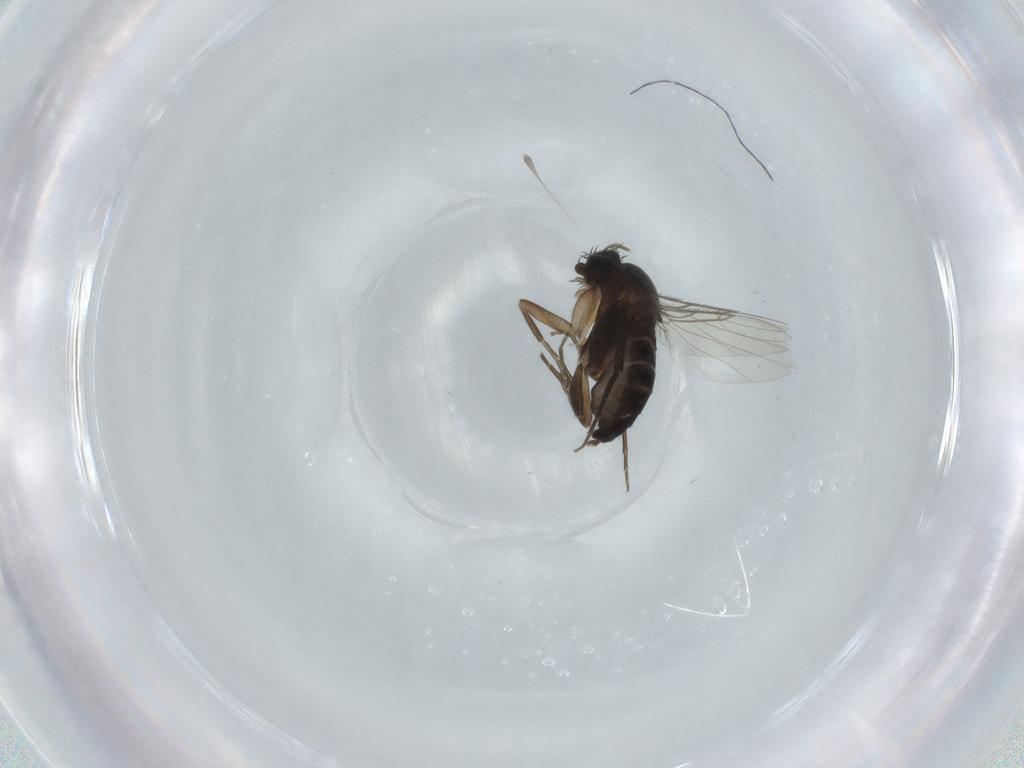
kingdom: Animalia
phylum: Arthropoda
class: Insecta
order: Diptera
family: Phoridae
